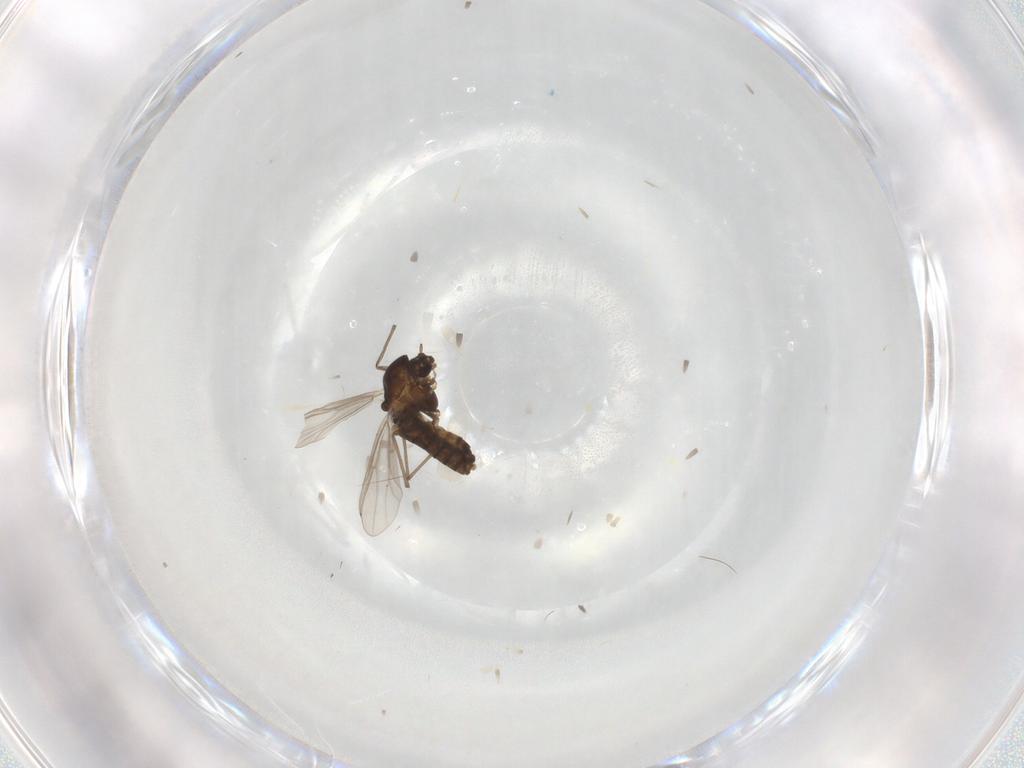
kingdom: Animalia
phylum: Arthropoda
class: Insecta
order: Diptera
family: Chironomidae
